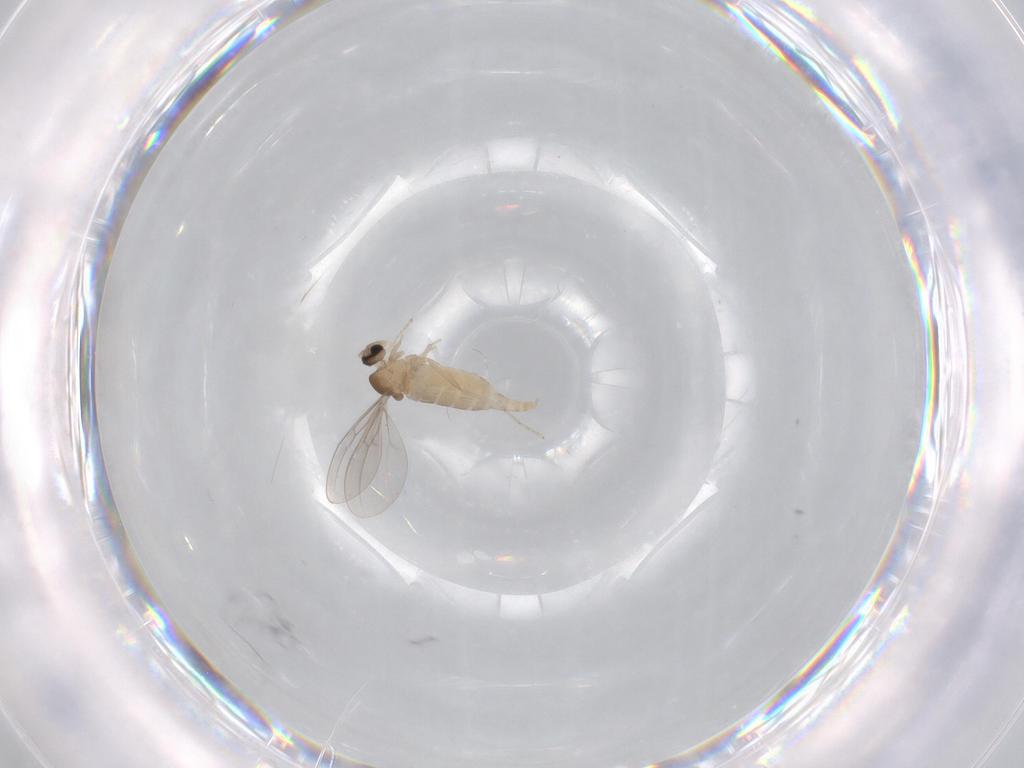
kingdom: Animalia
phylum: Arthropoda
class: Insecta
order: Diptera
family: Cecidomyiidae
